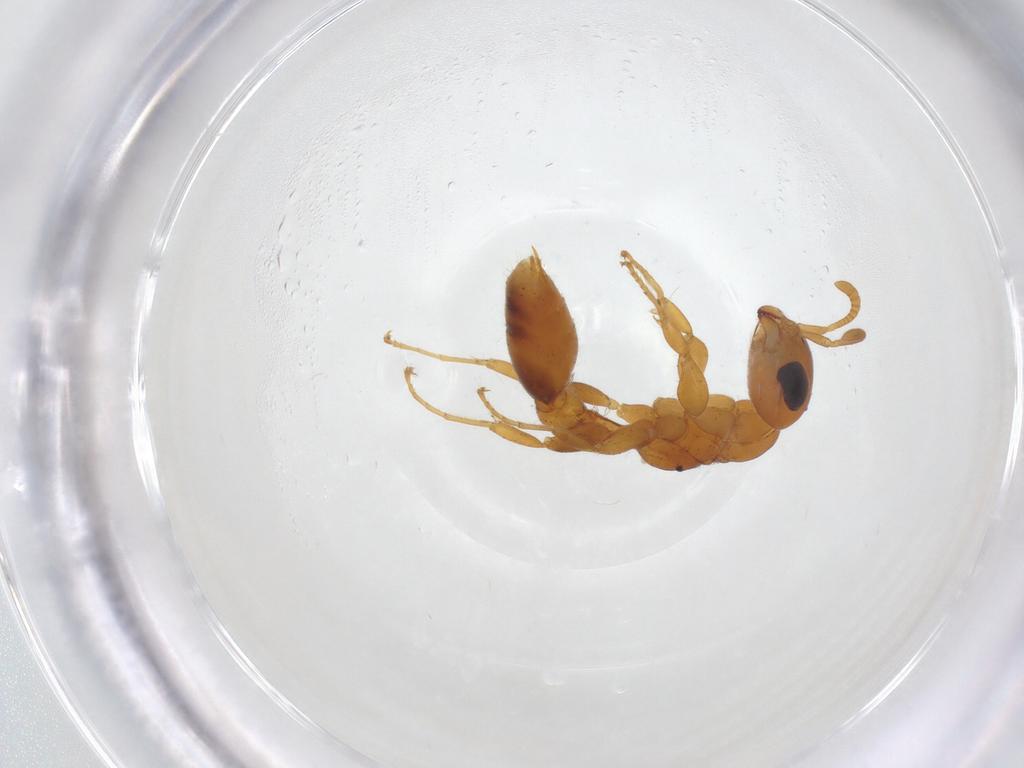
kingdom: Animalia
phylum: Arthropoda
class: Insecta
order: Hymenoptera
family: Formicidae
